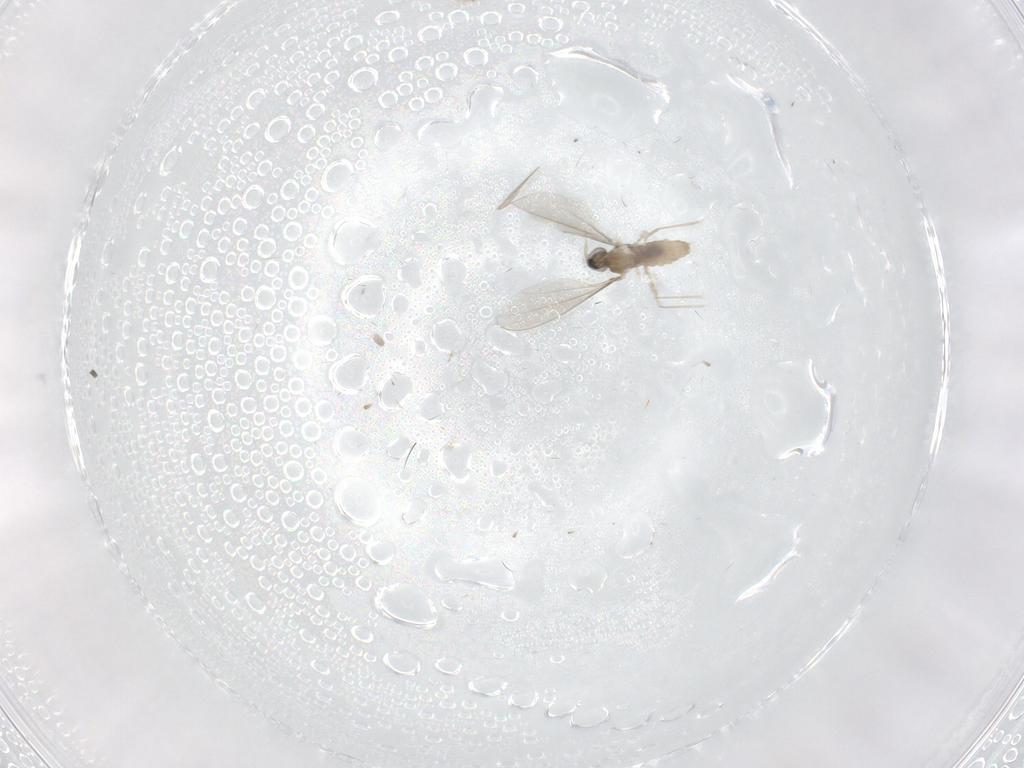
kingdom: Animalia
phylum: Arthropoda
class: Insecta
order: Diptera
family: Cecidomyiidae
